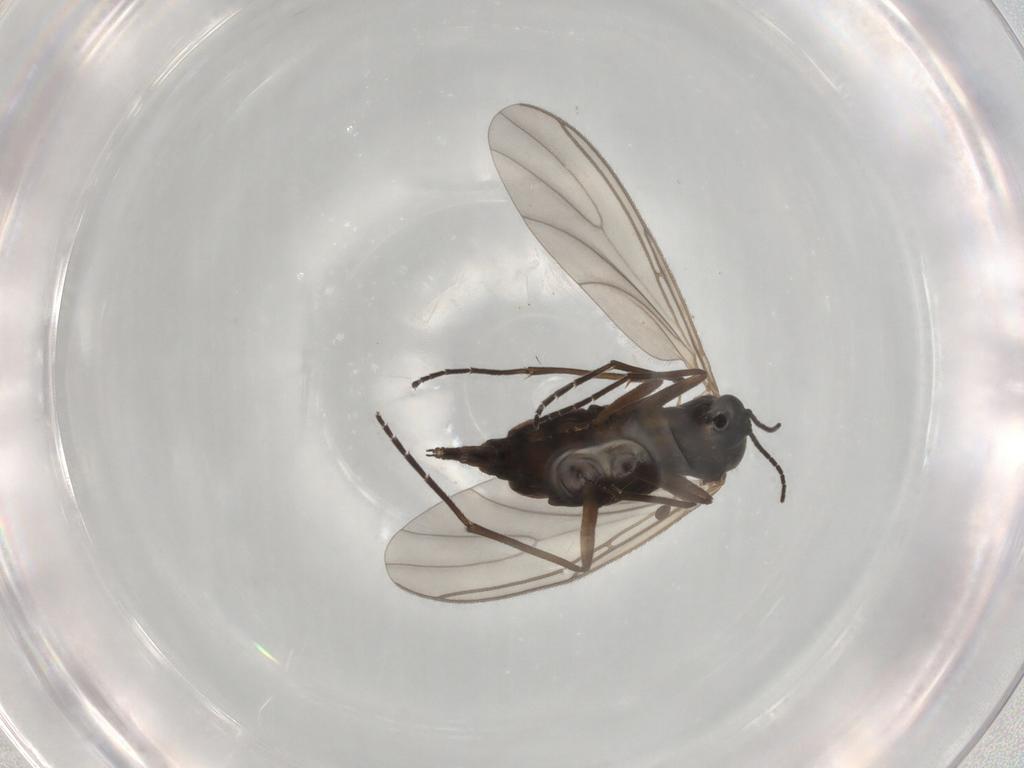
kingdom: Animalia
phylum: Arthropoda
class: Insecta
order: Diptera
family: Sciaridae
